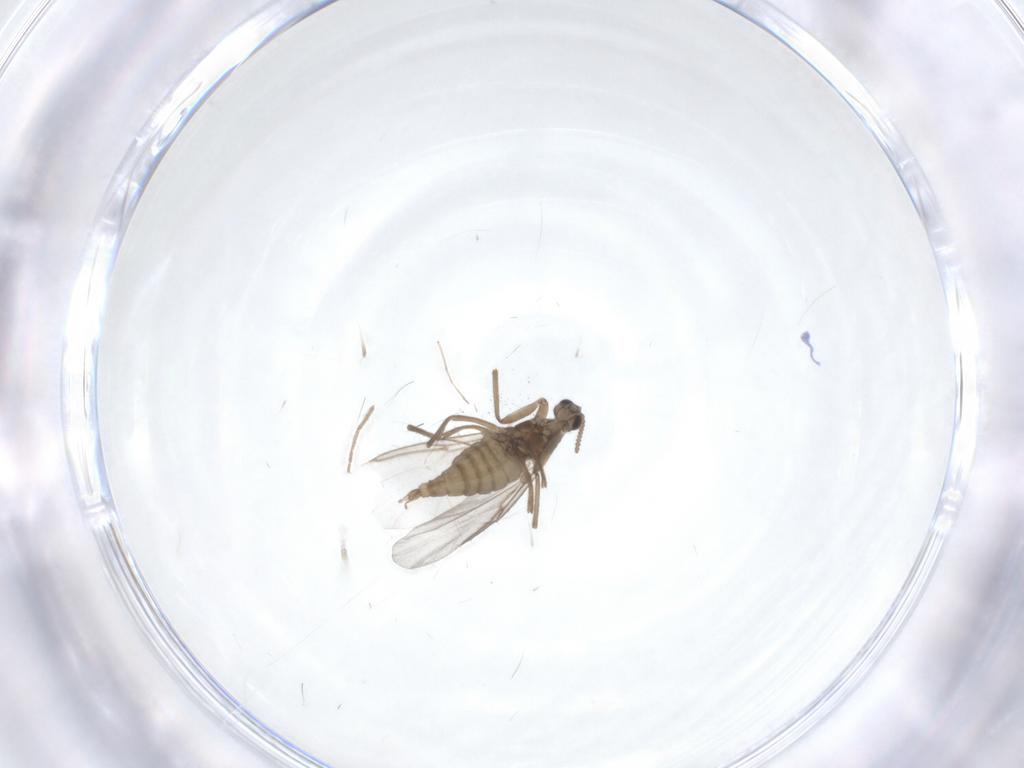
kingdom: Animalia
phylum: Arthropoda
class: Insecta
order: Diptera
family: Cecidomyiidae
